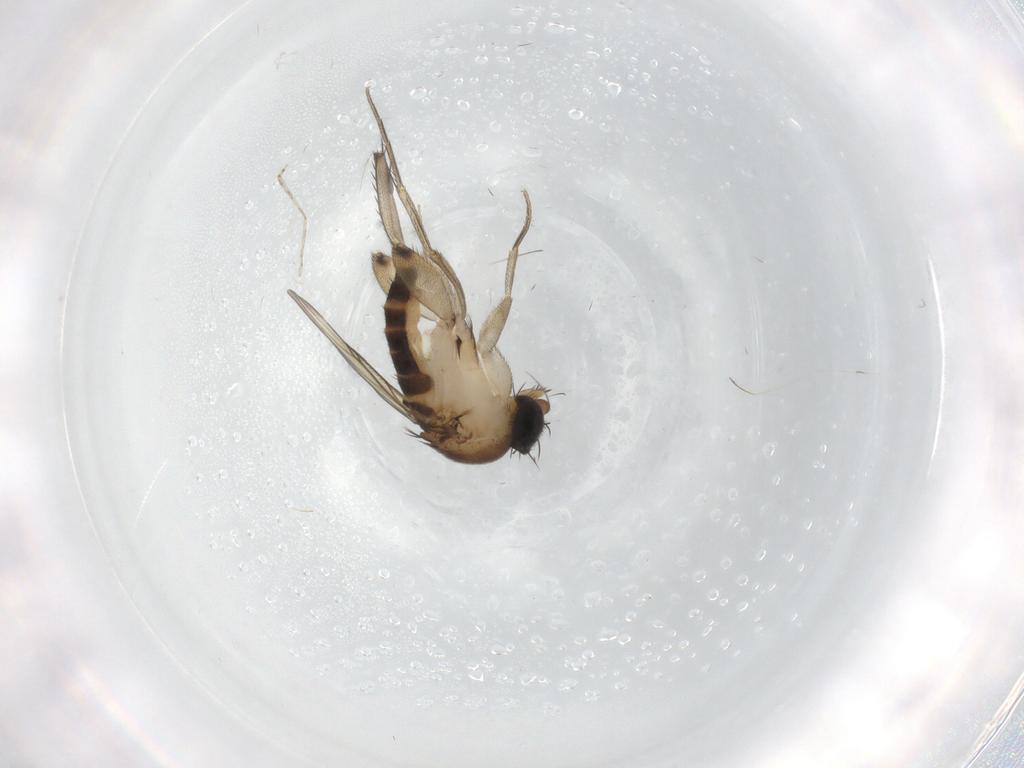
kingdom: Animalia
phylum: Arthropoda
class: Insecta
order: Diptera
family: Phoridae
